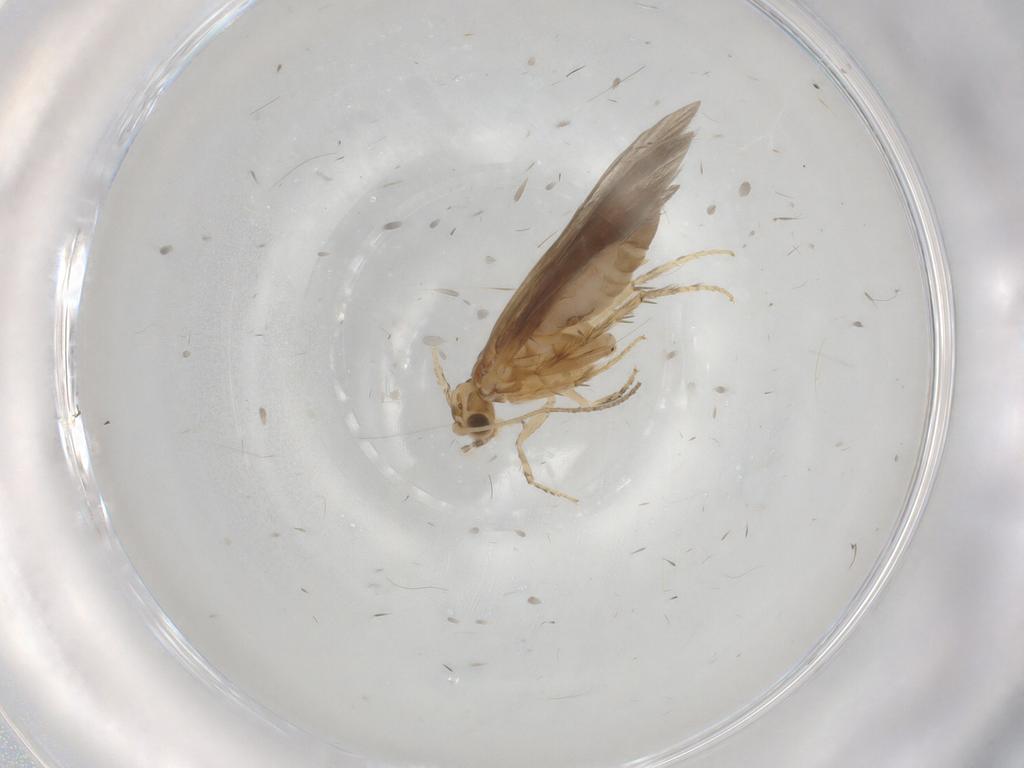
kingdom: Animalia
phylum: Arthropoda
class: Insecta
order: Trichoptera
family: Glossosomatidae
